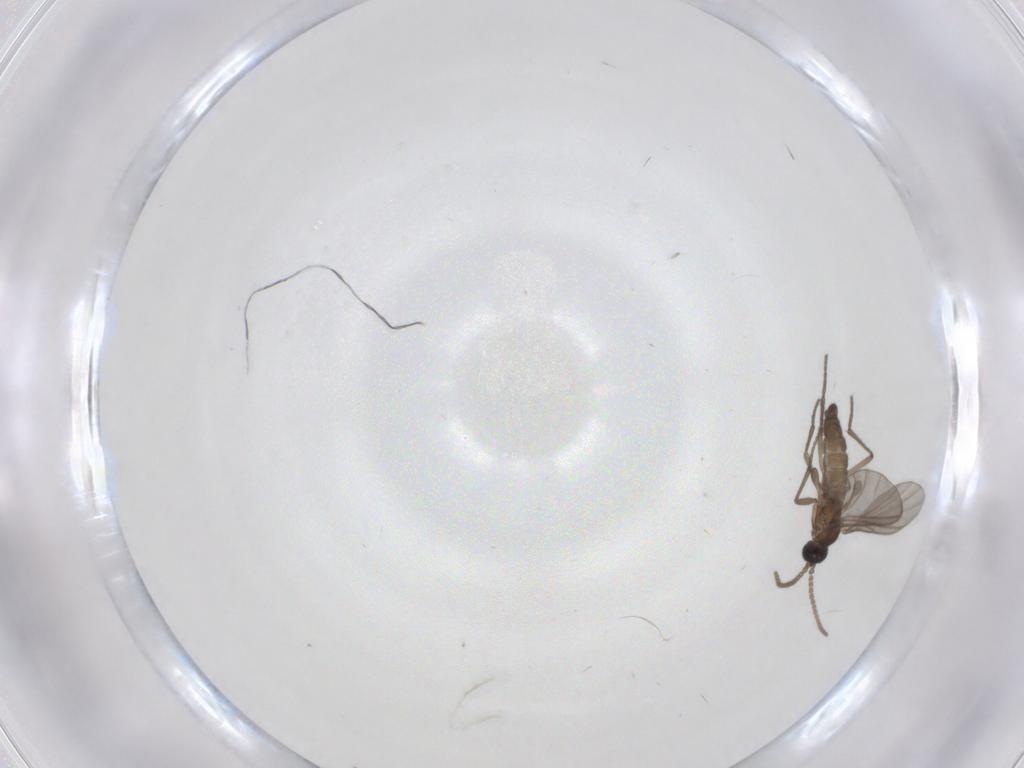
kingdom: Animalia
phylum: Arthropoda
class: Insecta
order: Diptera
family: Sciaridae
